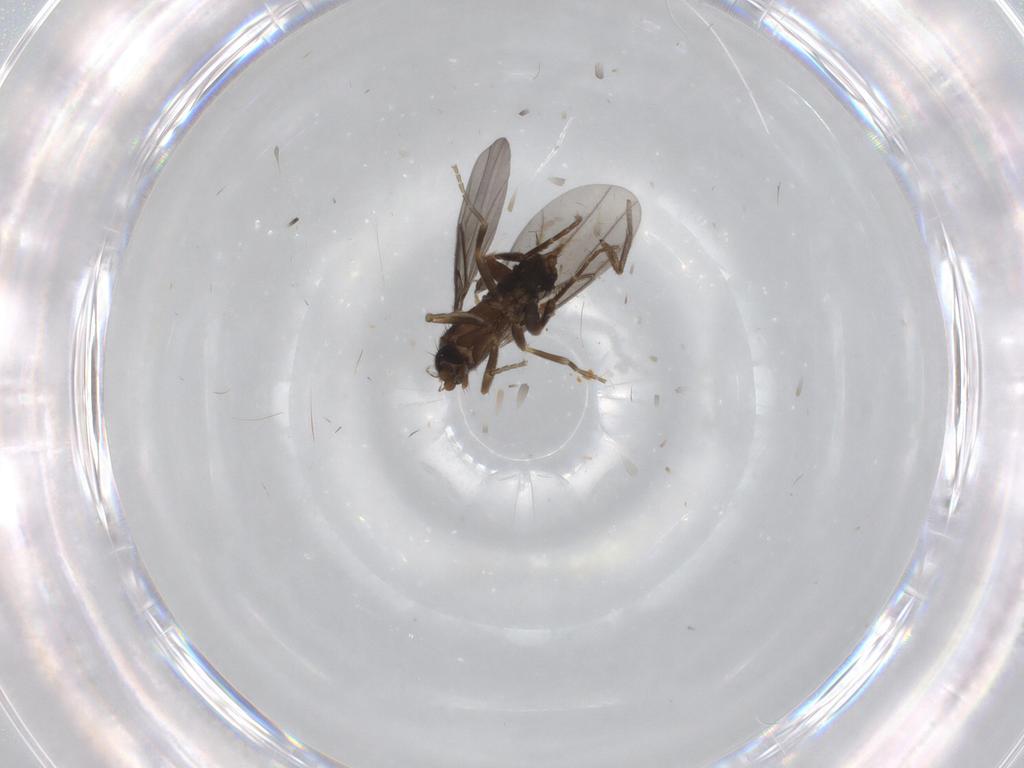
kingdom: Animalia
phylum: Arthropoda
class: Insecta
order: Diptera
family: Phoridae
